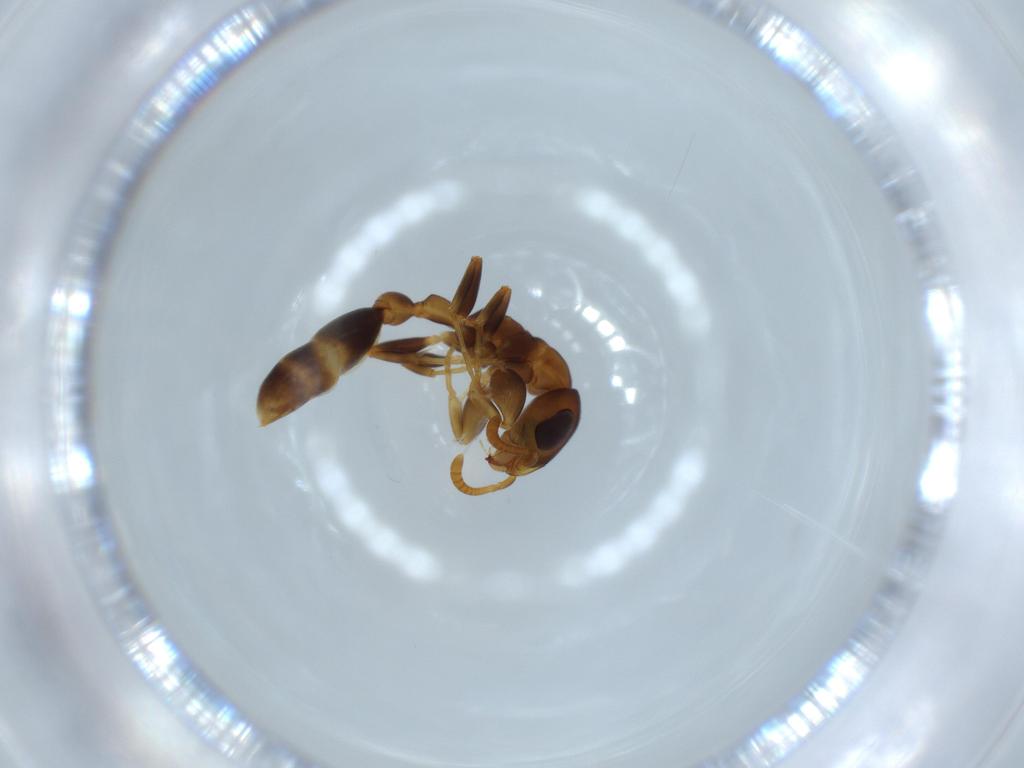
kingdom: Animalia
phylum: Arthropoda
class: Insecta
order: Hymenoptera
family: Formicidae
